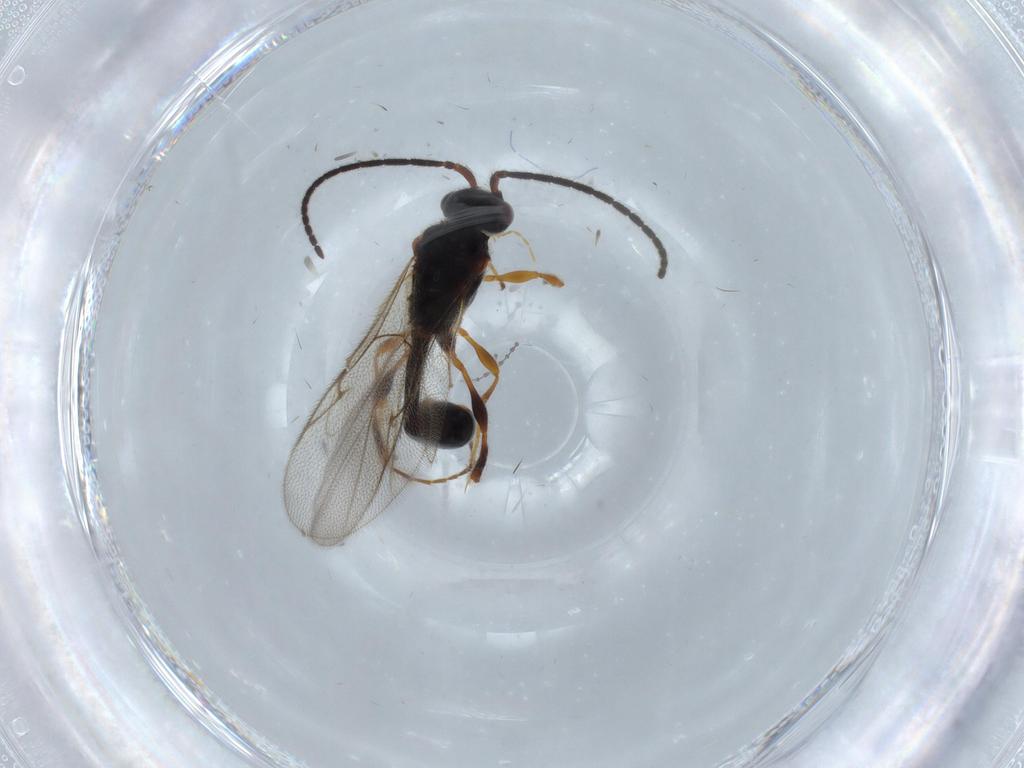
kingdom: Animalia
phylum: Arthropoda
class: Insecta
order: Hymenoptera
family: Diapriidae
